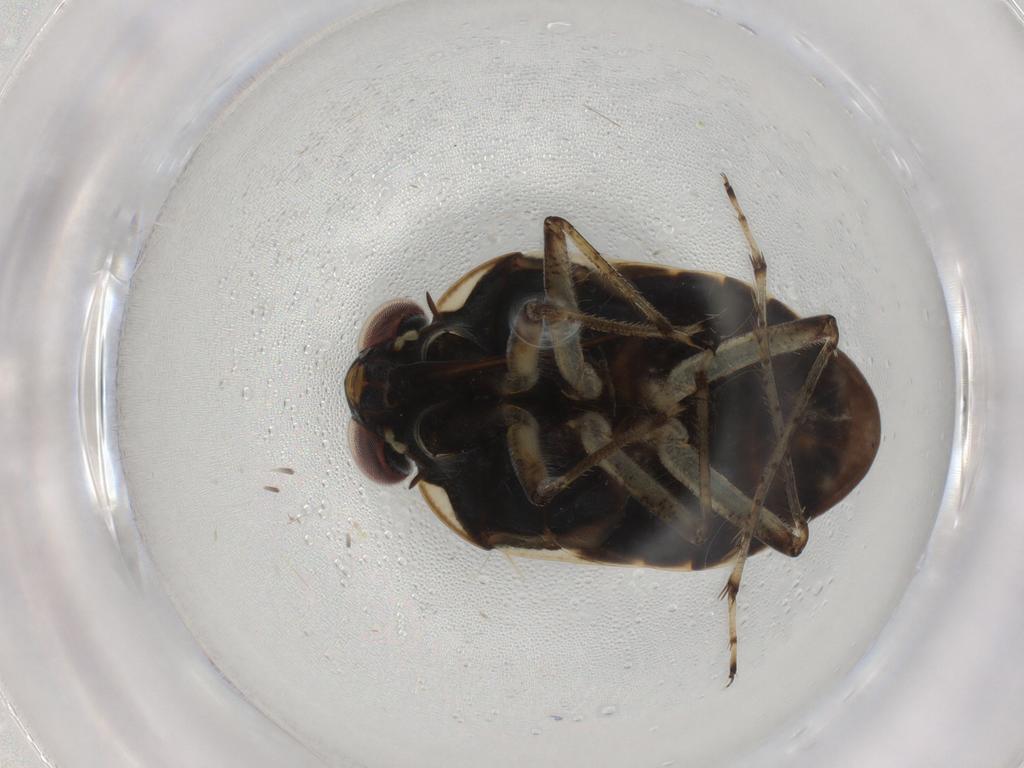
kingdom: Animalia
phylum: Arthropoda
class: Insecta
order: Hemiptera
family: Ochteridae
